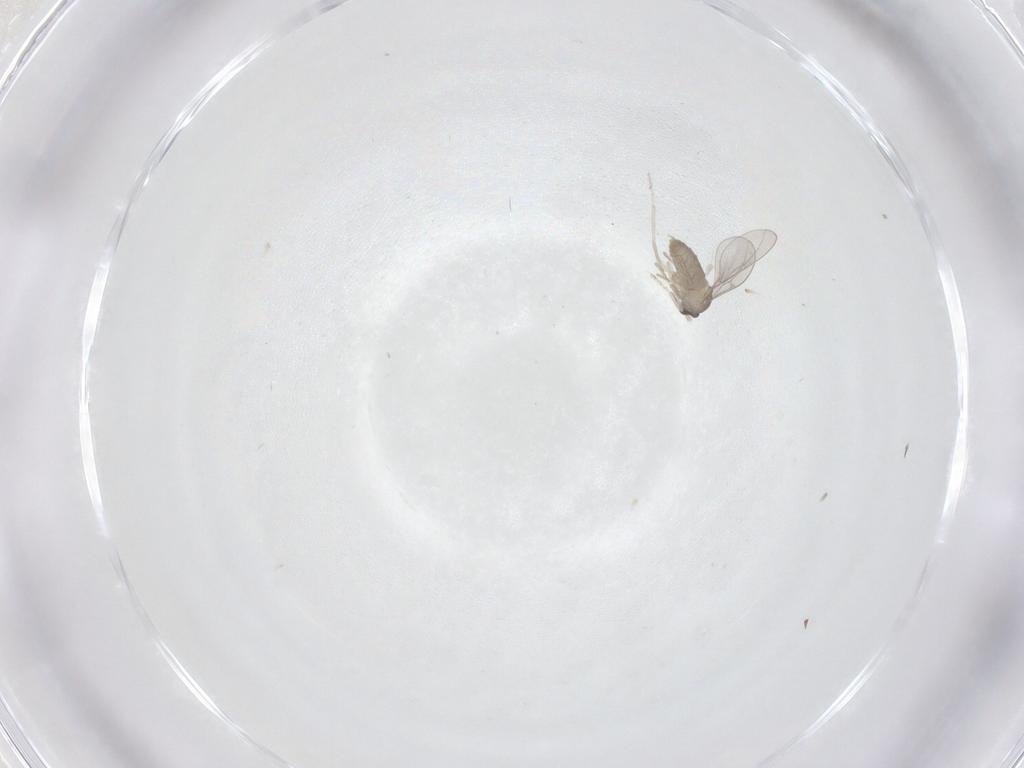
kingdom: Animalia
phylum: Arthropoda
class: Insecta
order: Diptera
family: Cecidomyiidae
